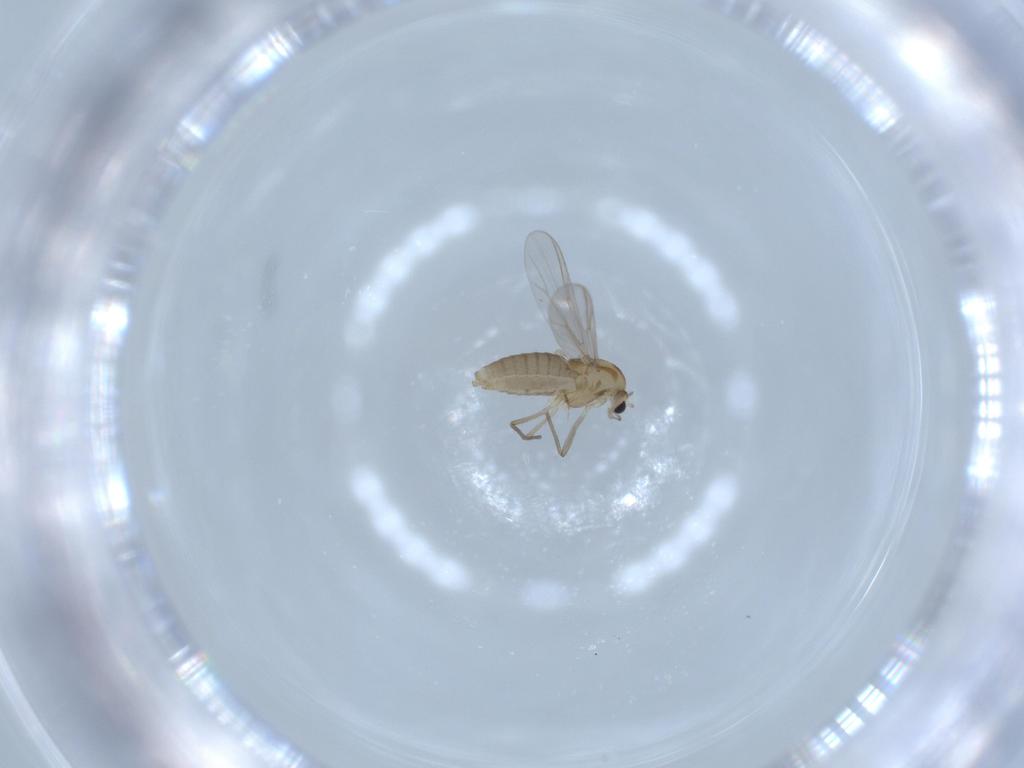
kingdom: Animalia
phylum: Arthropoda
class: Insecta
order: Diptera
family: Chironomidae
